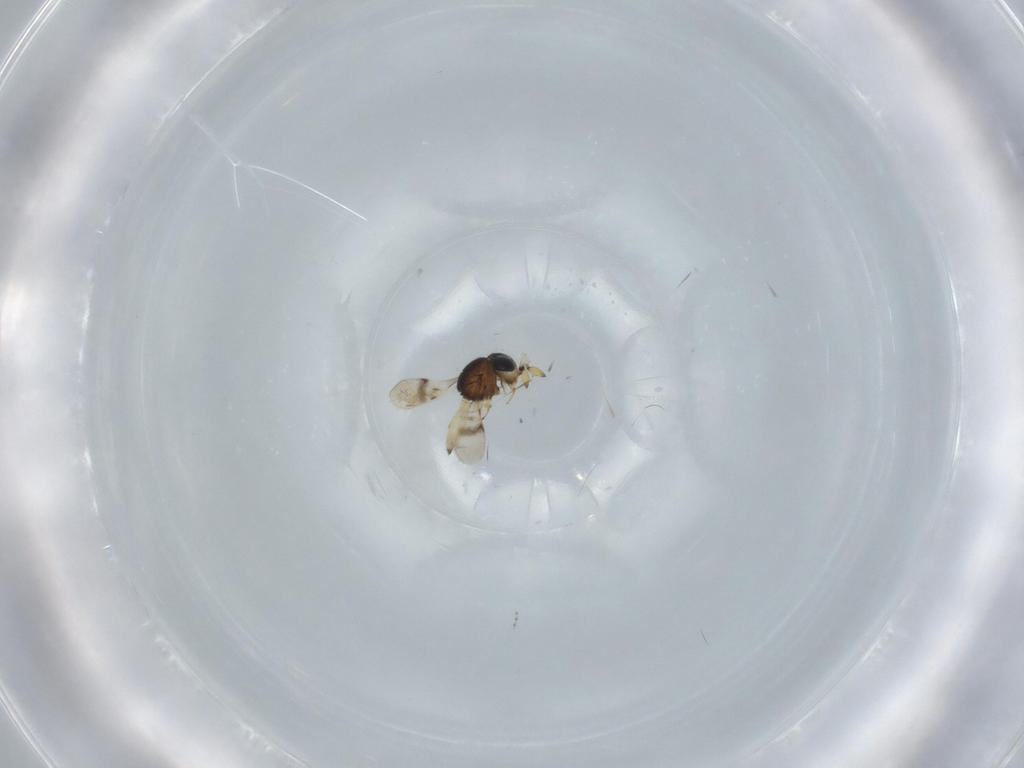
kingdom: Animalia
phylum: Arthropoda
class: Insecta
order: Hymenoptera
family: Scelionidae
